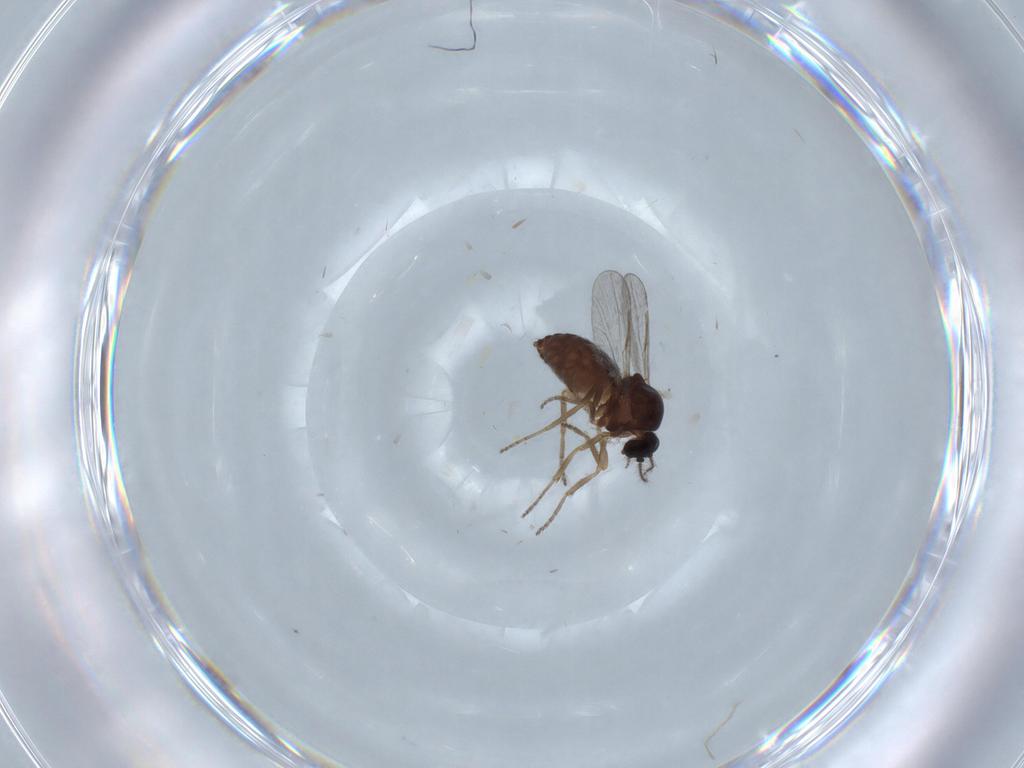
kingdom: Animalia
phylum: Arthropoda
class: Insecta
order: Diptera
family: Ceratopogonidae
